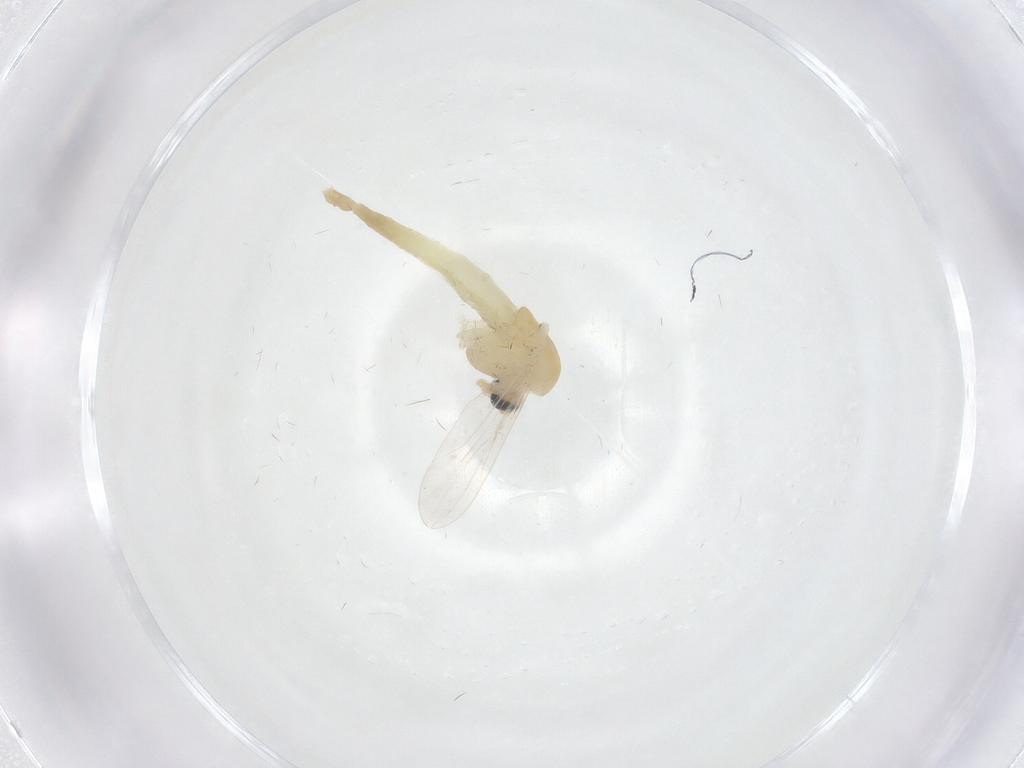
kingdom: Animalia
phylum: Arthropoda
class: Insecta
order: Diptera
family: Chironomidae
